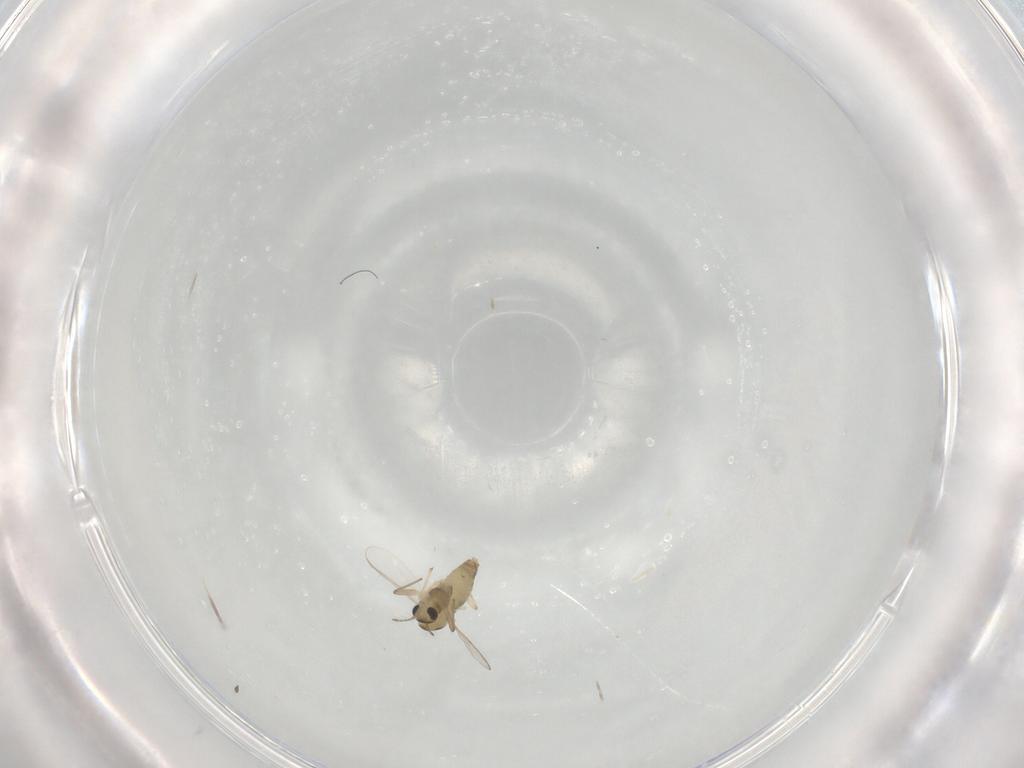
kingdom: Animalia
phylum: Arthropoda
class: Insecta
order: Diptera
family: Chironomidae
